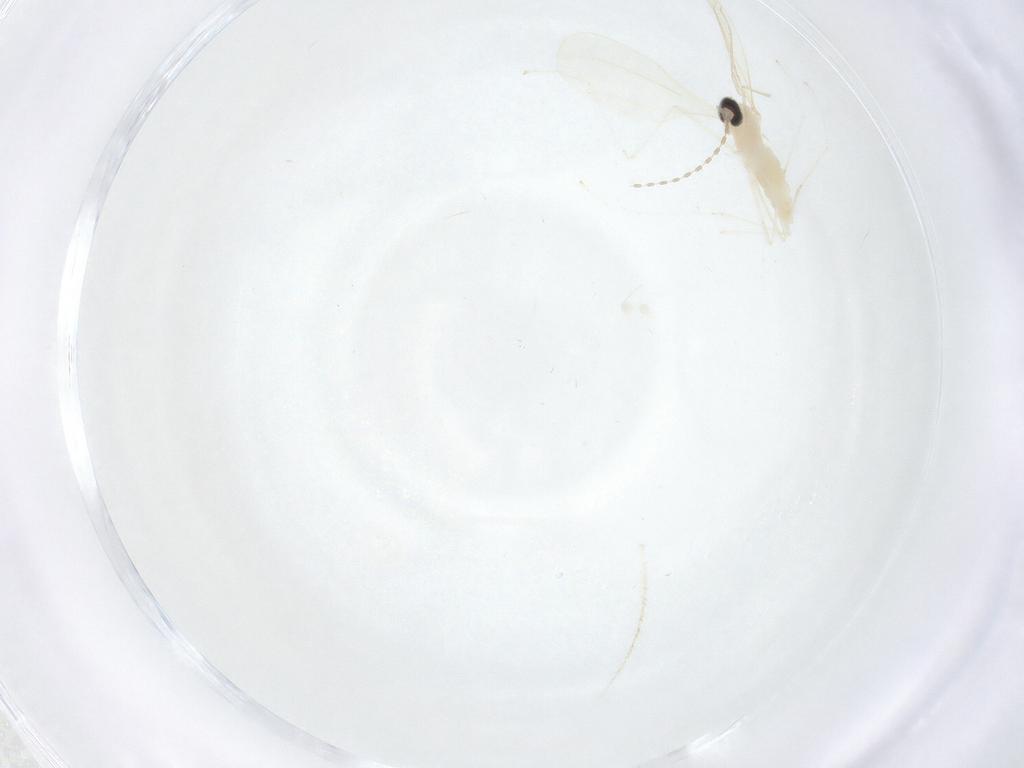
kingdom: Animalia
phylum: Arthropoda
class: Insecta
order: Diptera
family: Cecidomyiidae
